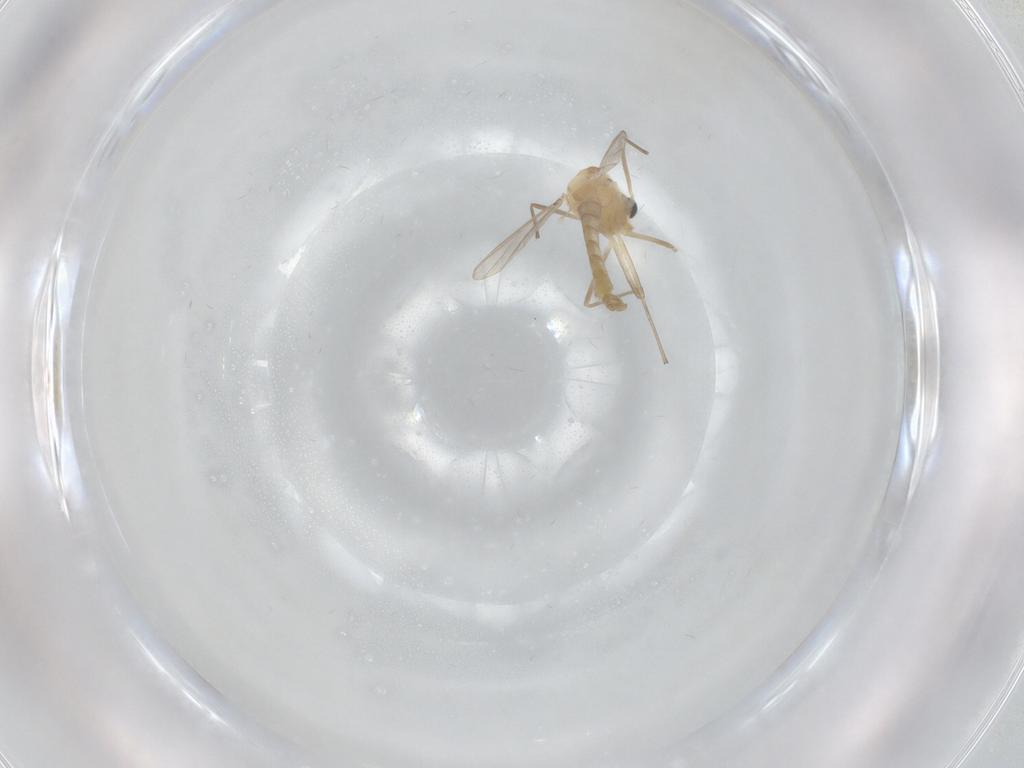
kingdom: Animalia
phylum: Arthropoda
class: Insecta
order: Diptera
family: Chironomidae
